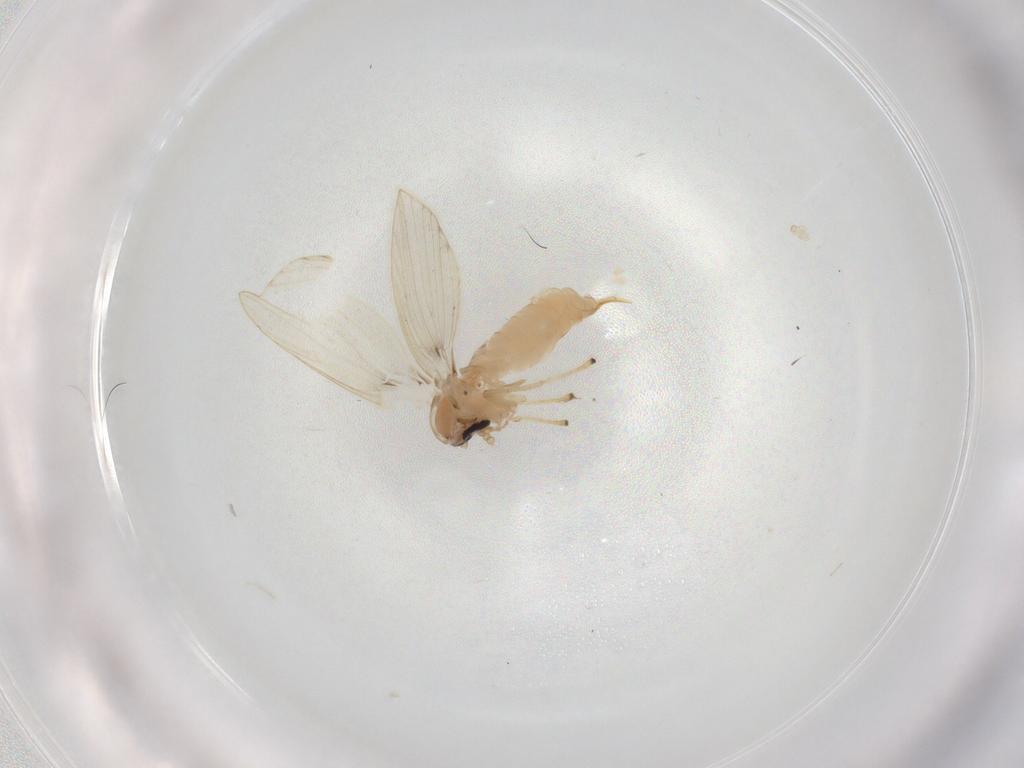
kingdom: Animalia
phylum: Arthropoda
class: Insecta
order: Diptera
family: Psychodidae
